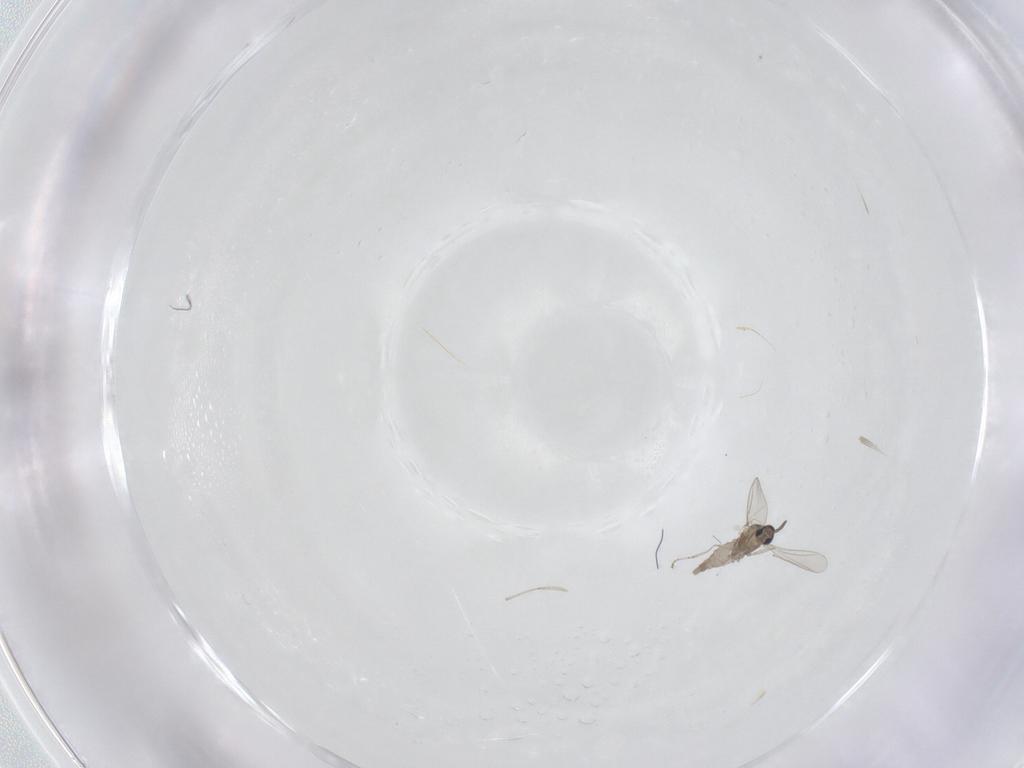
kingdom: Animalia
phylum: Arthropoda
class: Insecta
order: Diptera
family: Cecidomyiidae
